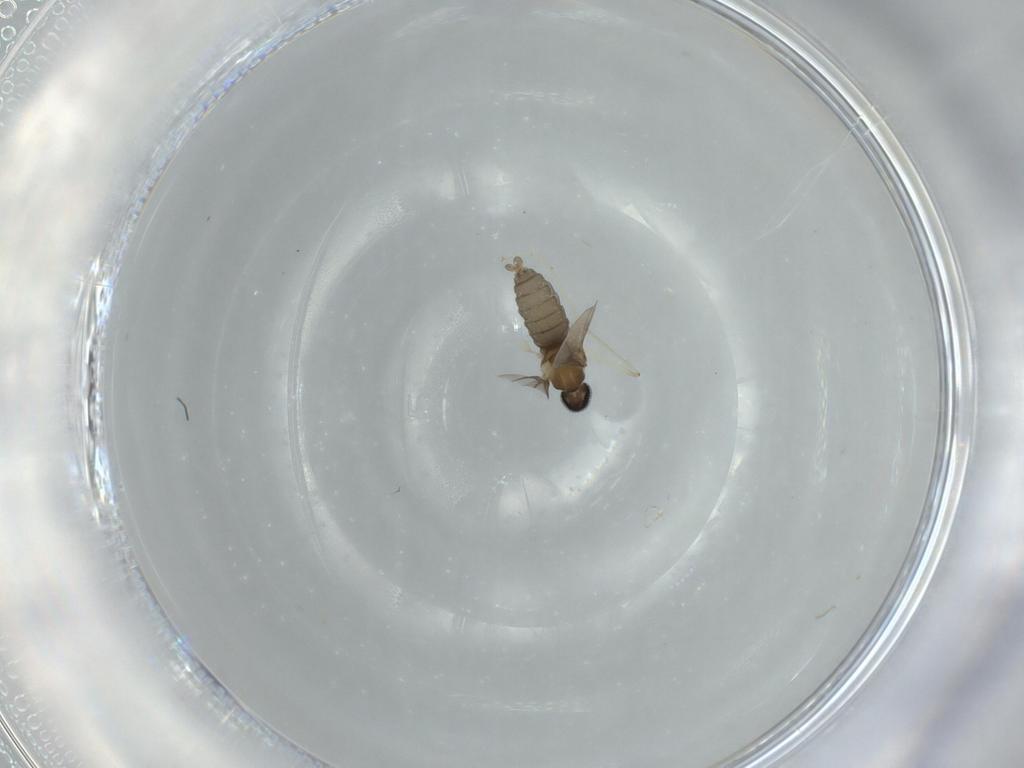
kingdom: Animalia
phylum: Arthropoda
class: Insecta
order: Diptera
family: Cecidomyiidae
